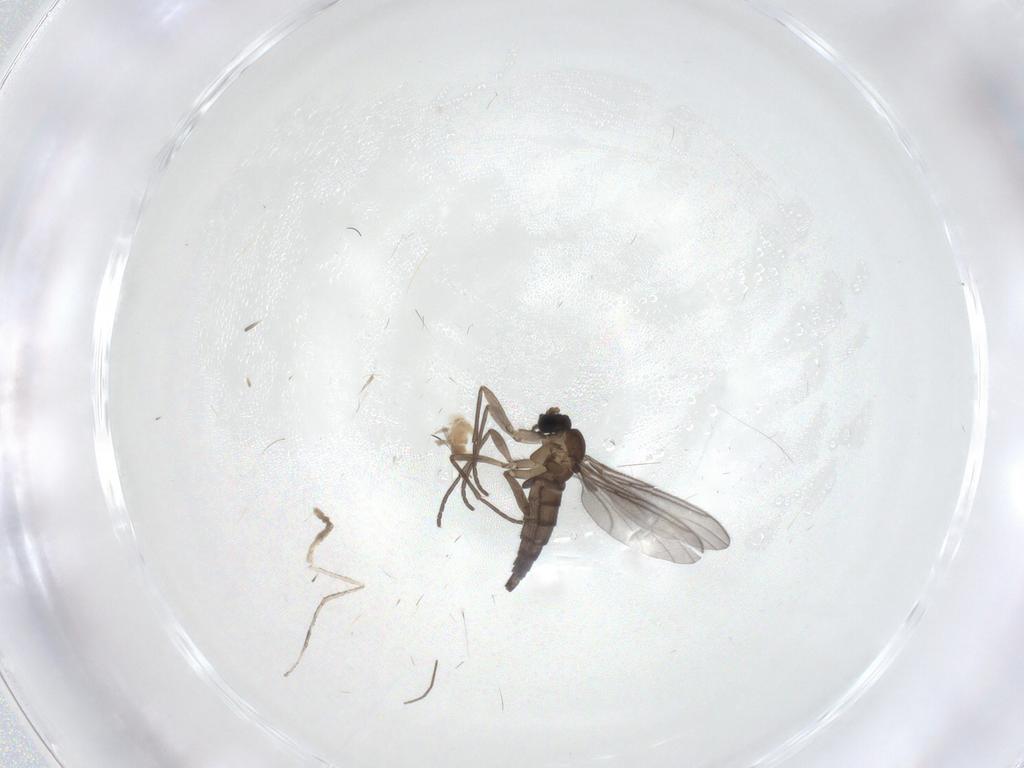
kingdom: Animalia
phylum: Arthropoda
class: Insecta
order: Diptera
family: Cecidomyiidae
